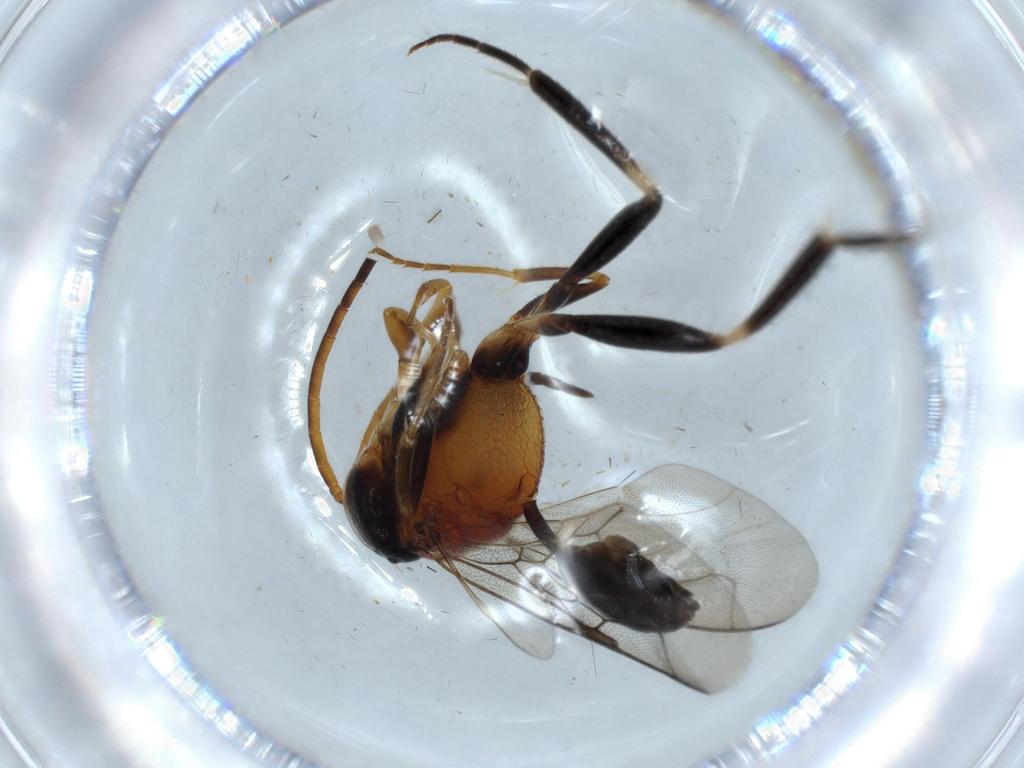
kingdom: Animalia
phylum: Arthropoda
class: Insecta
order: Hymenoptera
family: Evaniidae
